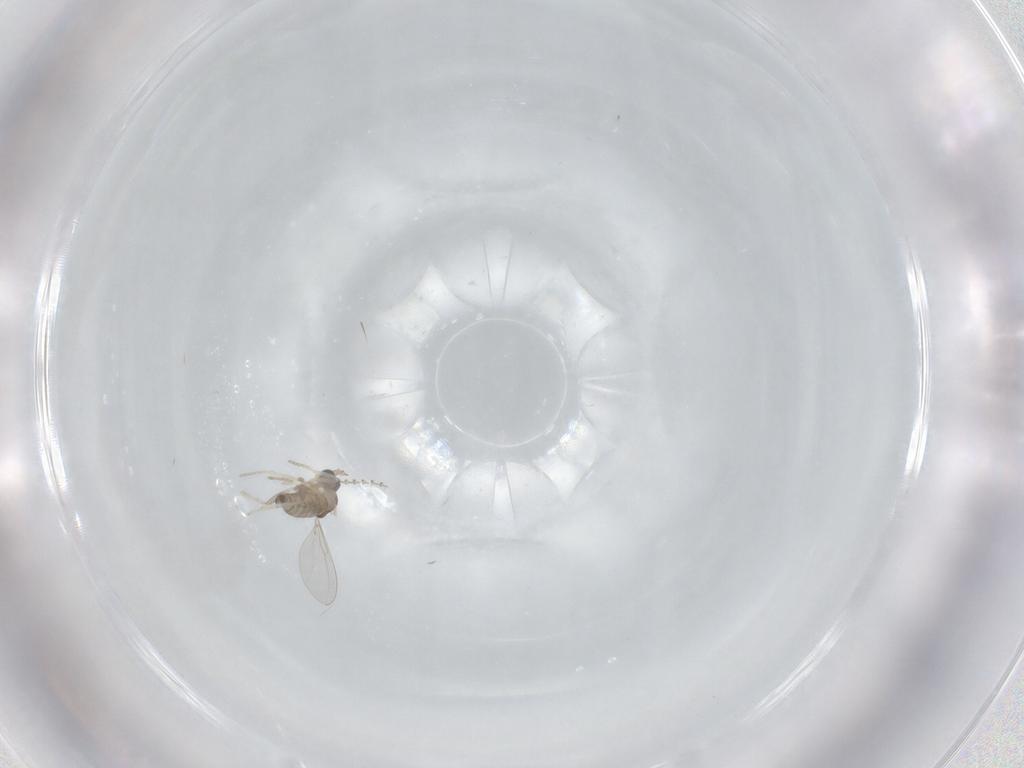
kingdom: Animalia
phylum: Arthropoda
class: Insecta
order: Diptera
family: Cecidomyiidae
